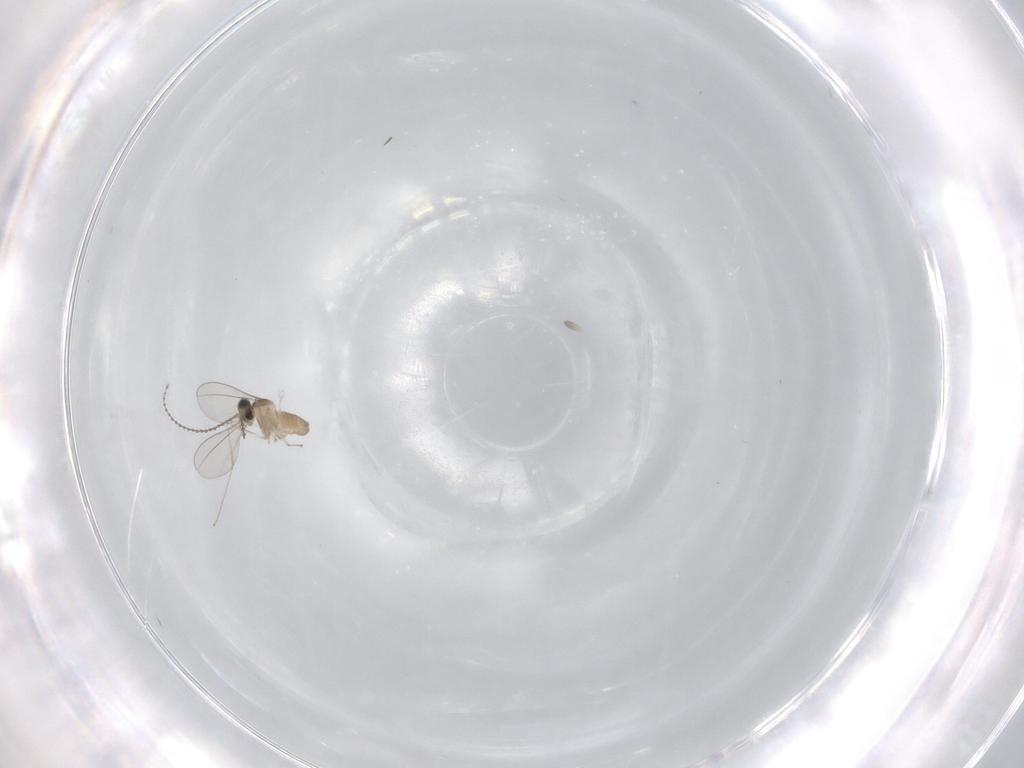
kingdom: Animalia
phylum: Arthropoda
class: Insecta
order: Diptera
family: Cecidomyiidae
